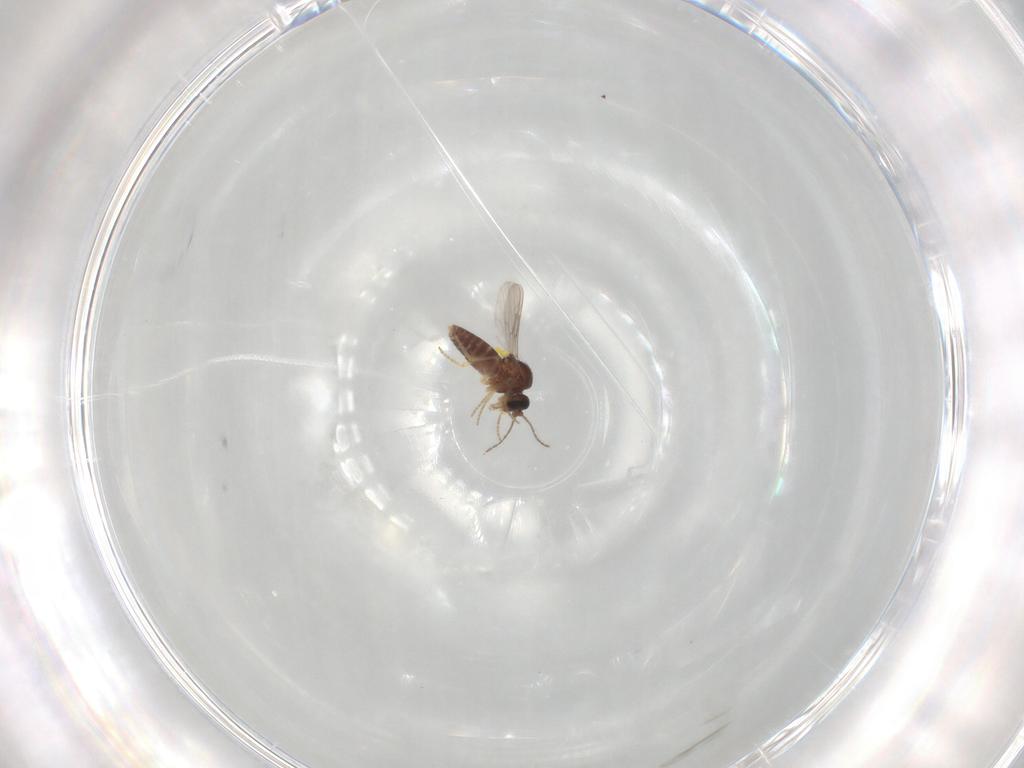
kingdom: Animalia
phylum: Arthropoda
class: Insecta
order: Diptera
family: Ceratopogonidae
